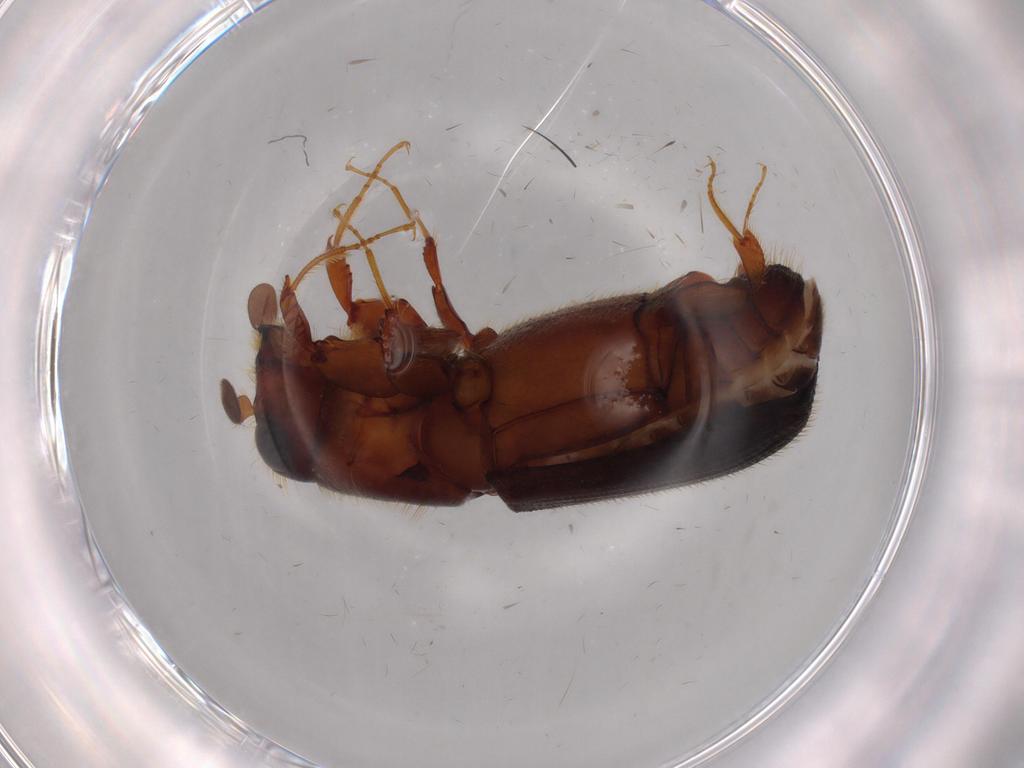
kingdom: Animalia
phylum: Arthropoda
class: Insecta
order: Coleoptera
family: Curculionidae
